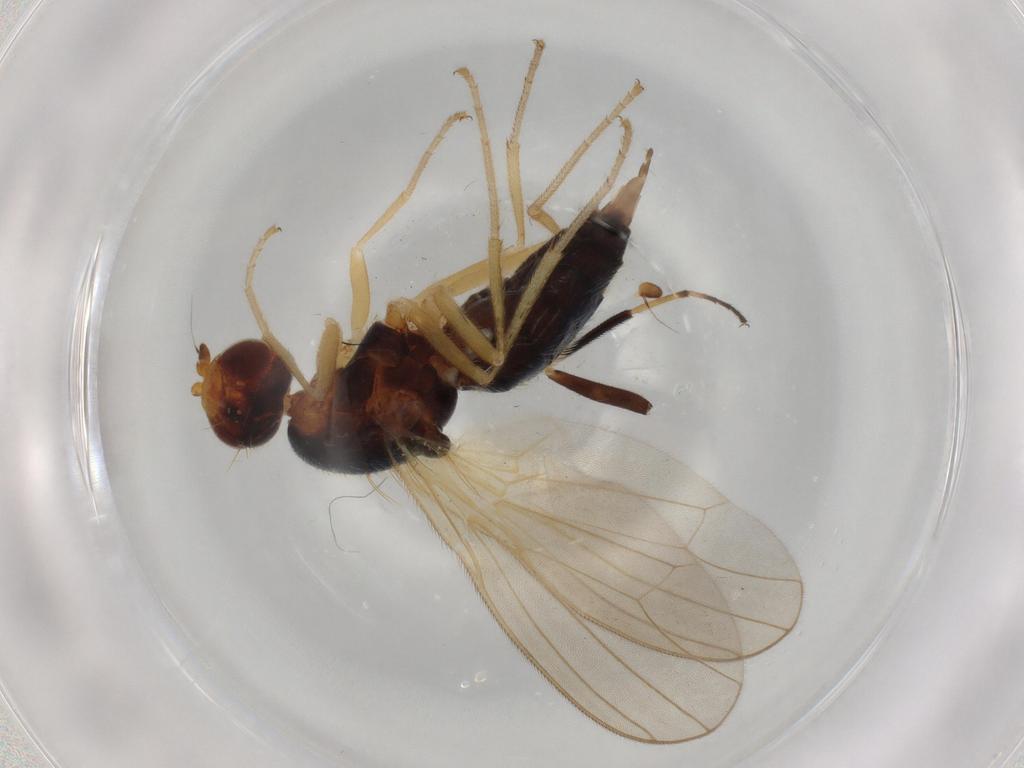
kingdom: Animalia
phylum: Arthropoda
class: Insecta
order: Diptera
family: Hybotidae
